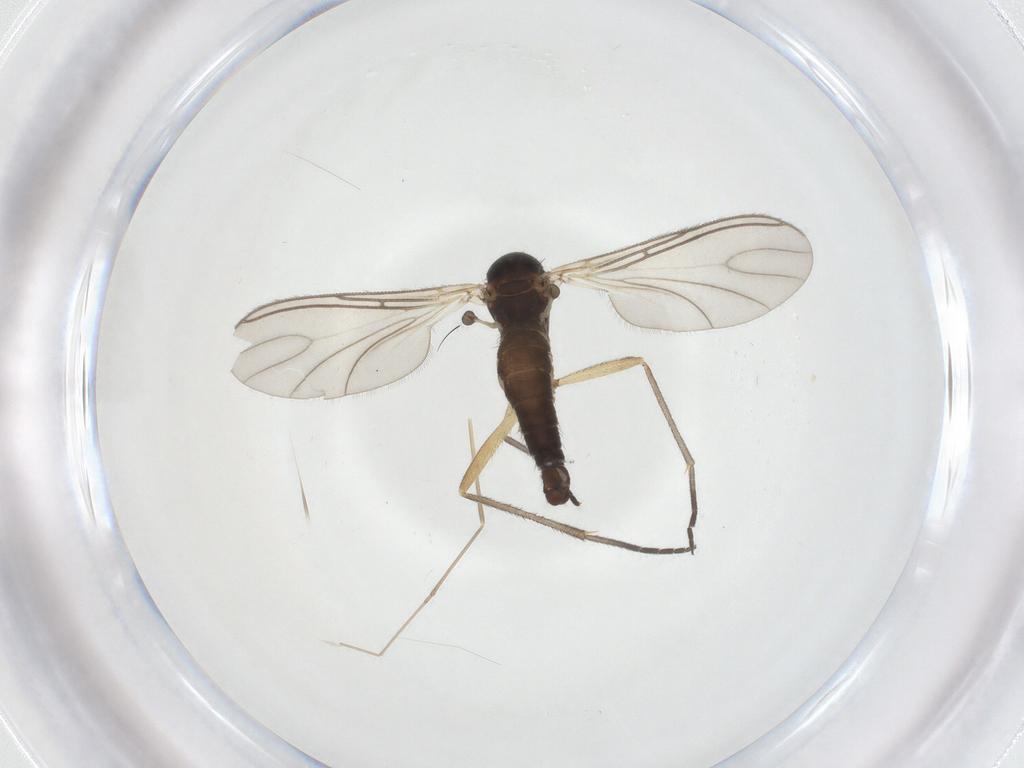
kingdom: Animalia
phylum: Arthropoda
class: Insecta
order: Diptera
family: Cecidomyiidae
